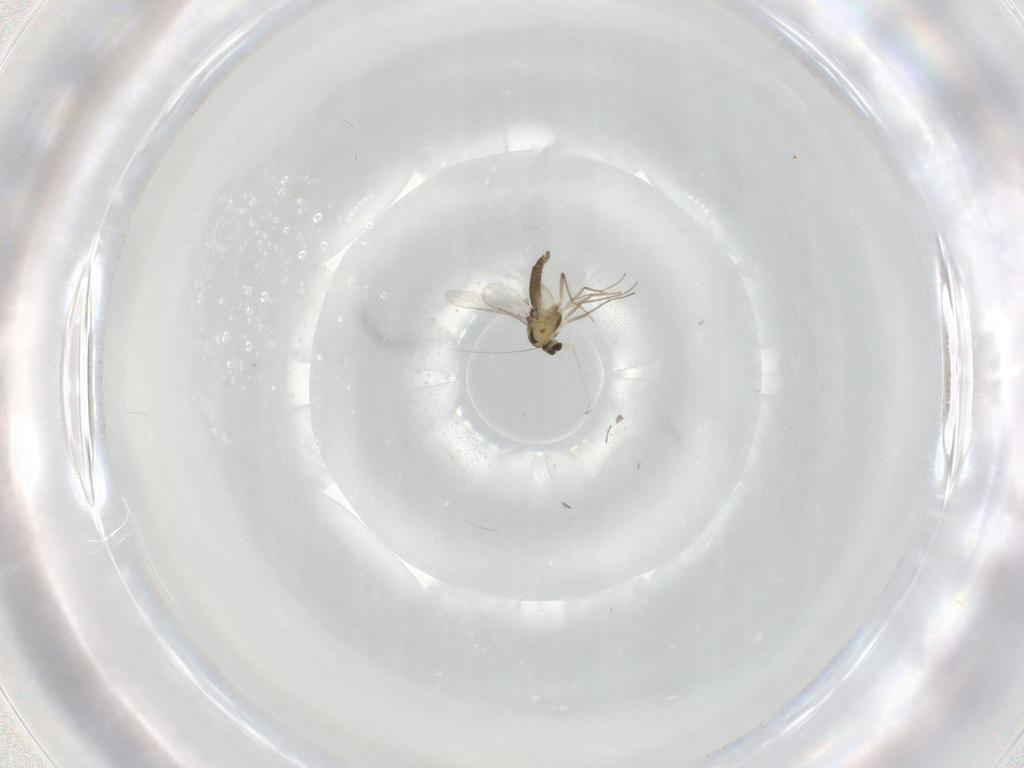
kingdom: Animalia
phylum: Arthropoda
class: Insecta
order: Diptera
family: Chironomidae
